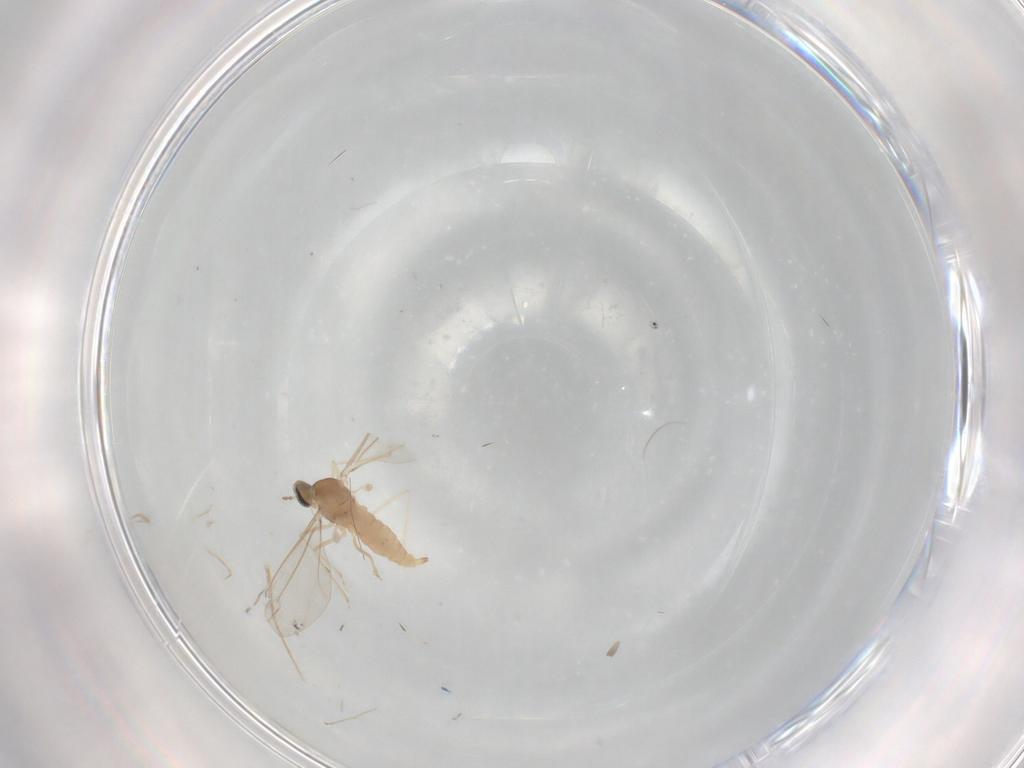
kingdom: Animalia
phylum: Arthropoda
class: Insecta
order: Diptera
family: Cecidomyiidae
